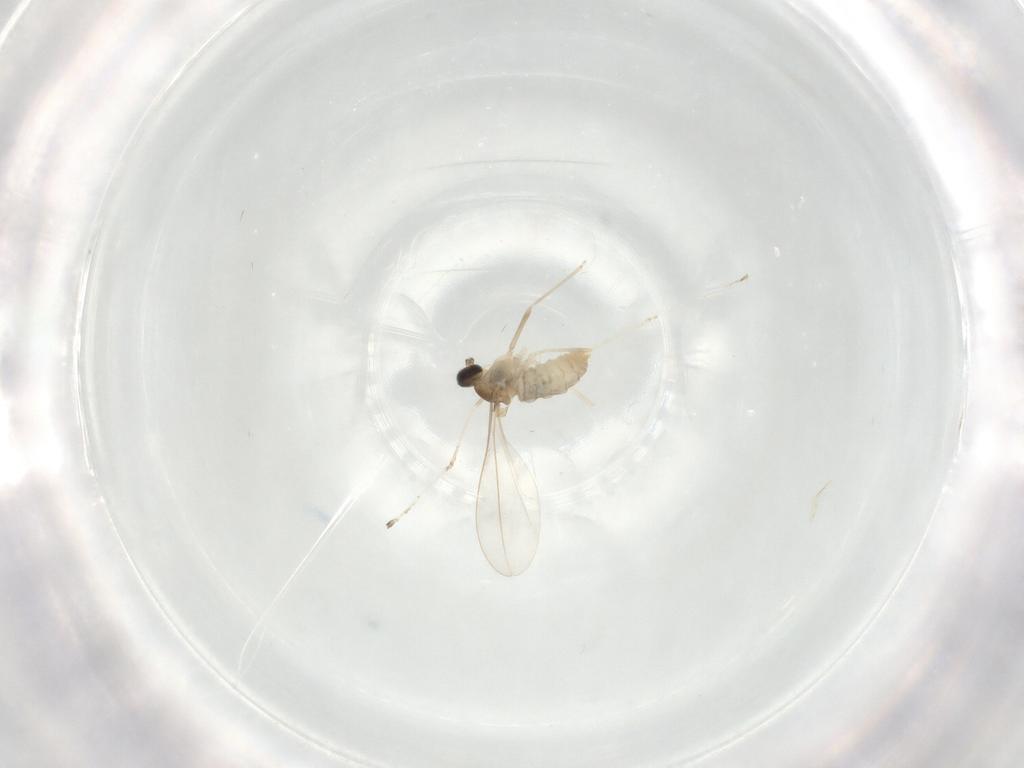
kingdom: Animalia
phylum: Arthropoda
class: Insecta
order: Diptera
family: Cecidomyiidae
